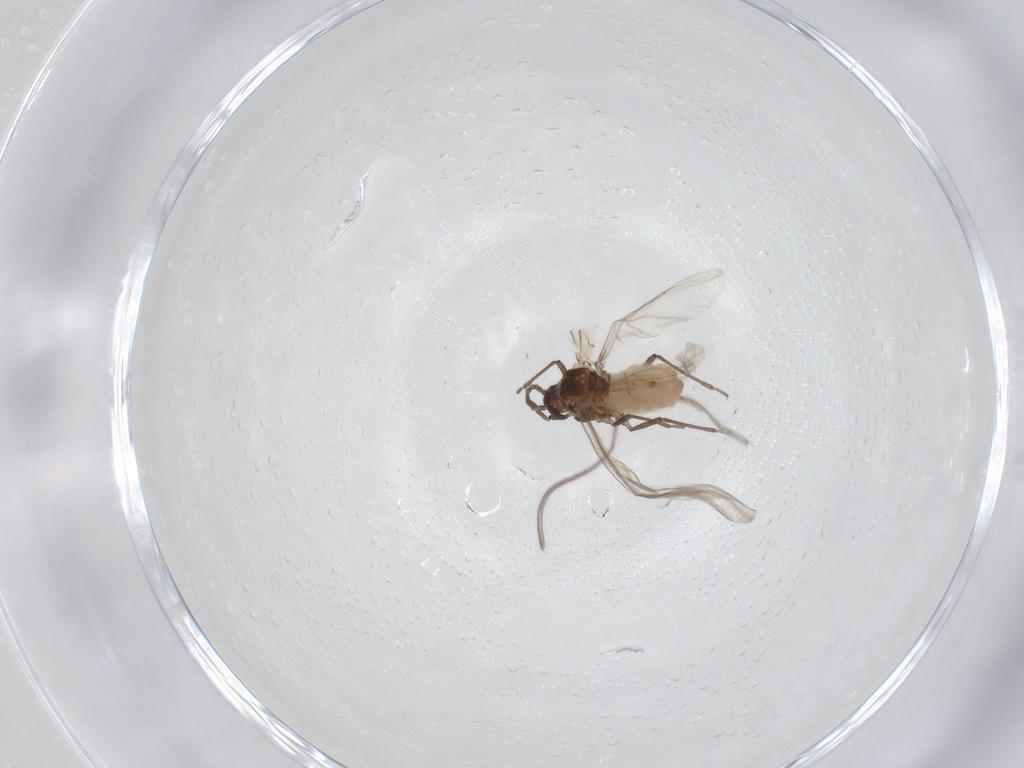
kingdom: Animalia
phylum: Arthropoda
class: Insecta
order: Hemiptera
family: Aphididae
